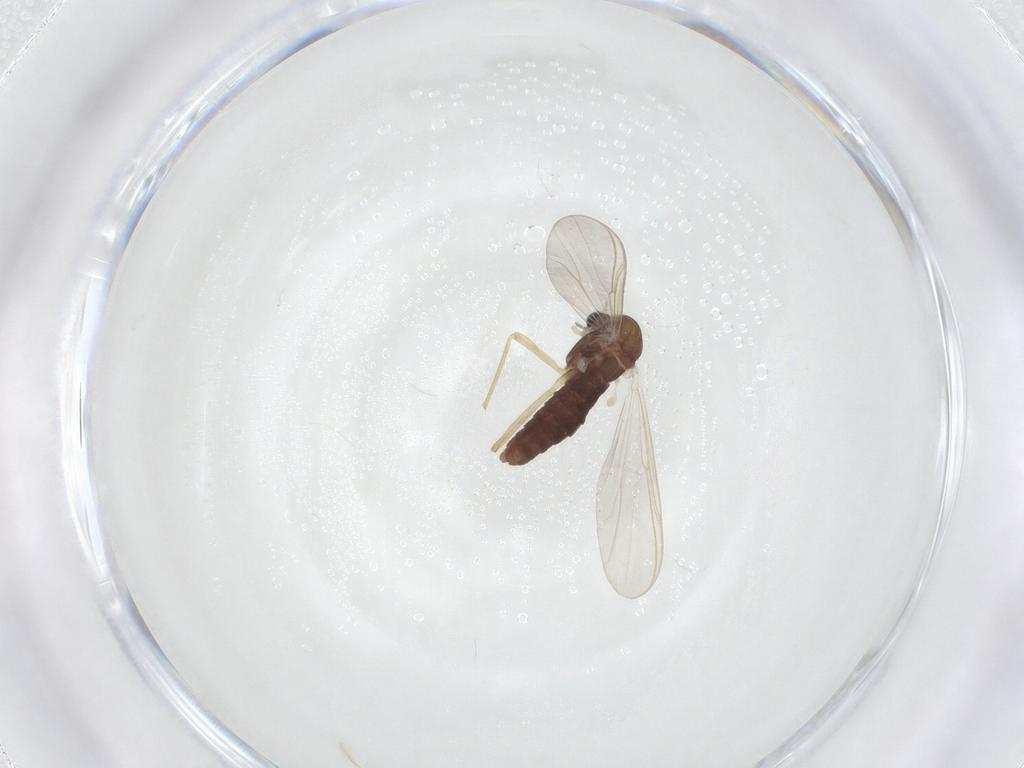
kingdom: Animalia
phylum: Arthropoda
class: Insecta
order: Diptera
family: Chironomidae
